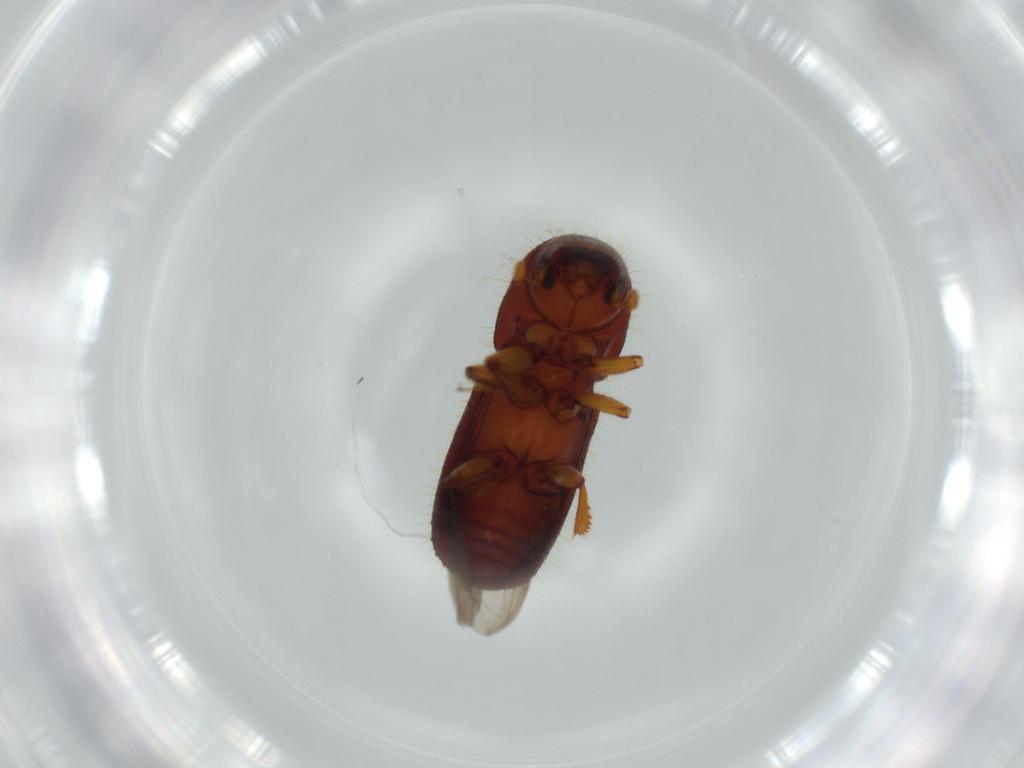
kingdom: Animalia
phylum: Arthropoda
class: Insecta
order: Coleoptera
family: Curculionidae
